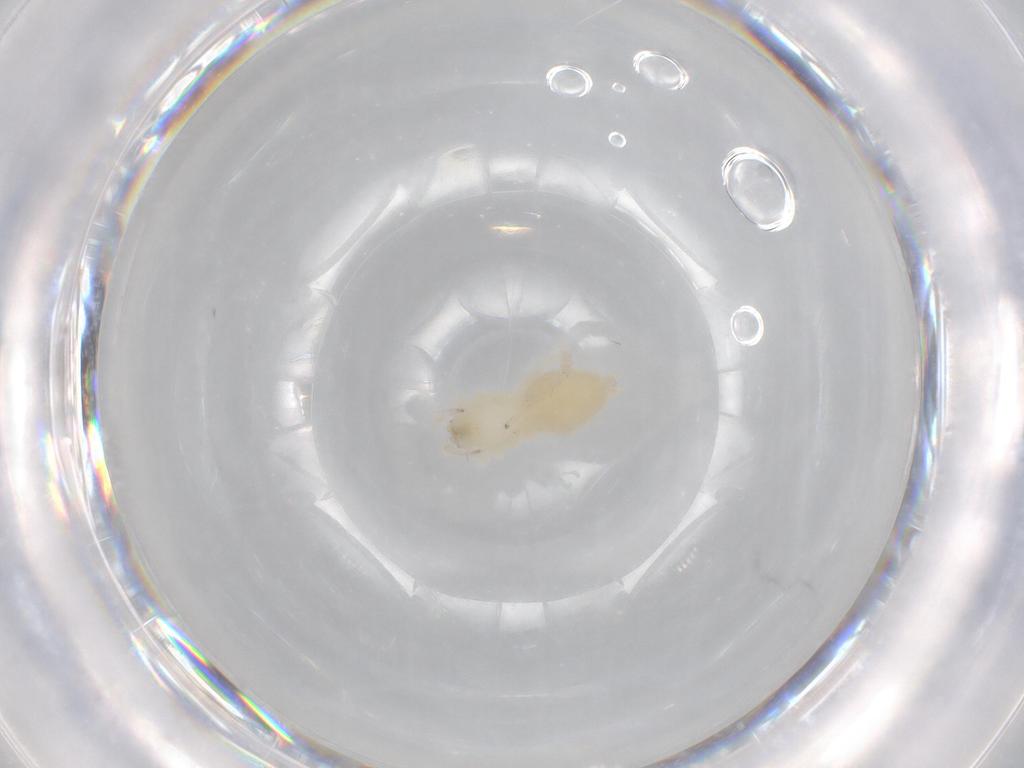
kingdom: Animalia
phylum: Arthropoda
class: Arachnida
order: Araneae
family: Anyphaenidae
